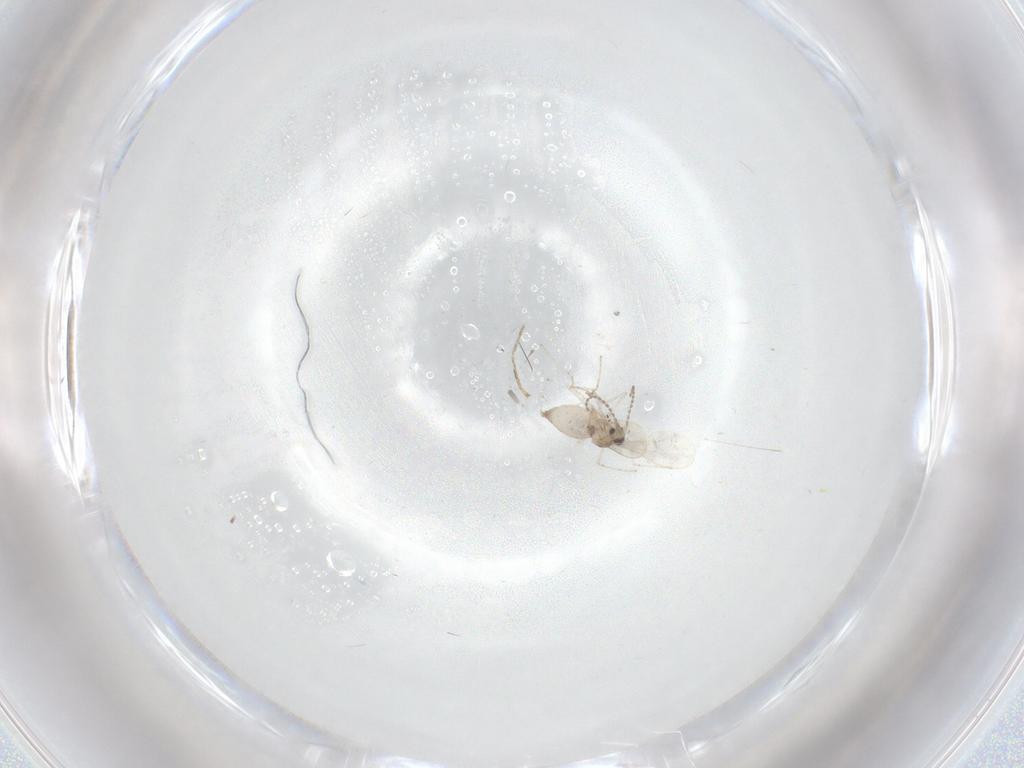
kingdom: Animalia
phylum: Arthropoda
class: Insecta
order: Diptera
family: Cecidomyiidae
